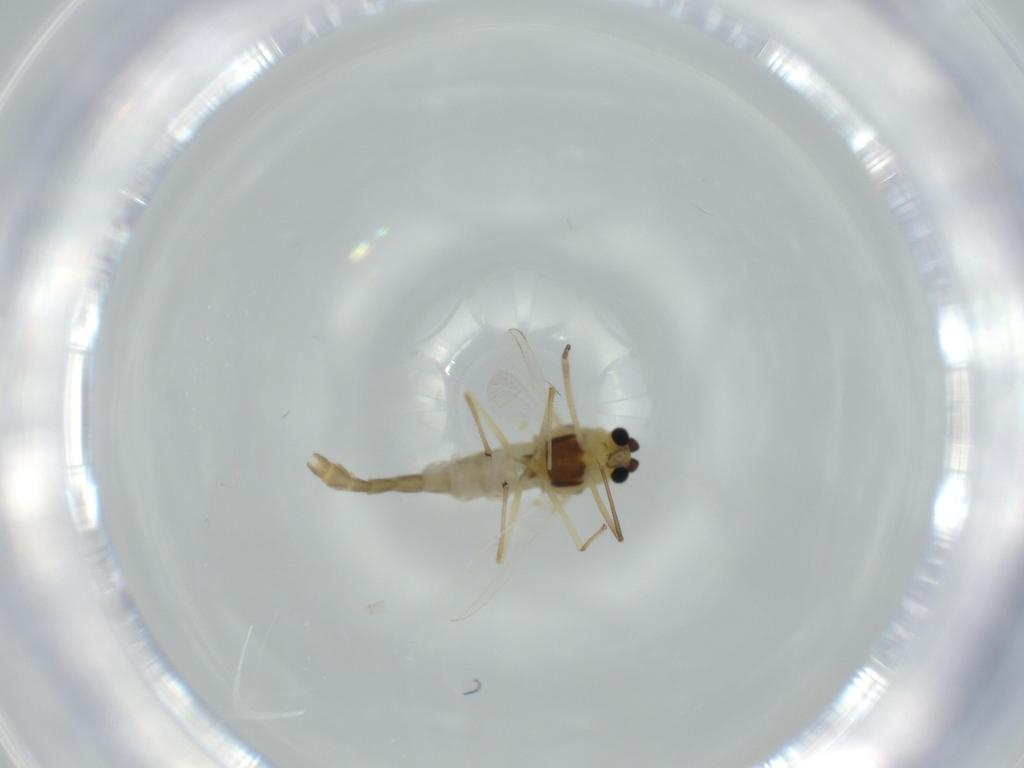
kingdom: Animalia
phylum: Arthropoda
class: Insecta
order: Diptera
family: Chironomidae
